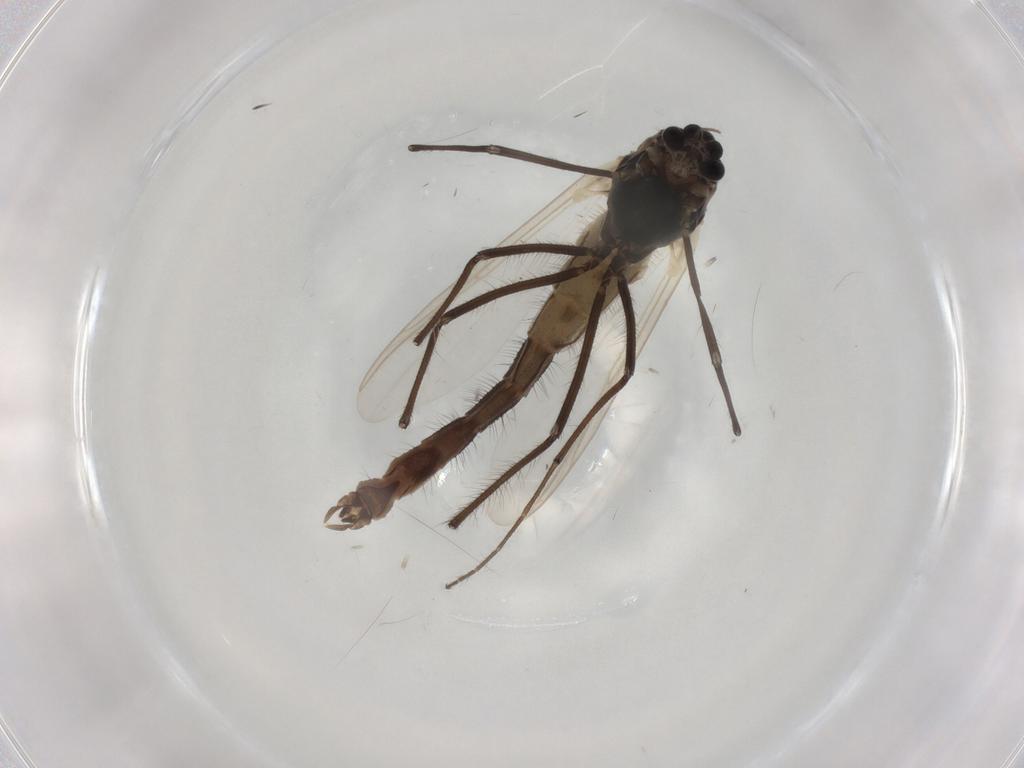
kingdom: Animalia
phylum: Arthropoda
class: Insecta
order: Diptera
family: Chironomidae
